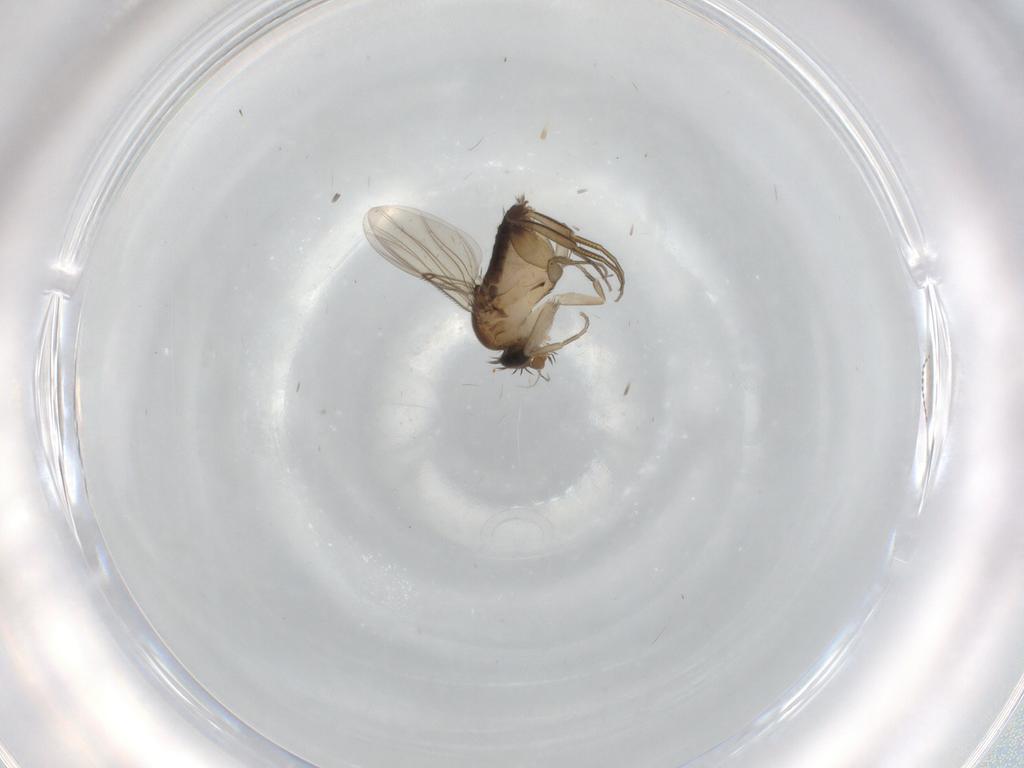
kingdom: Animalia
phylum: Arthropoda
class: Insecta
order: Diptera
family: Phoridae
